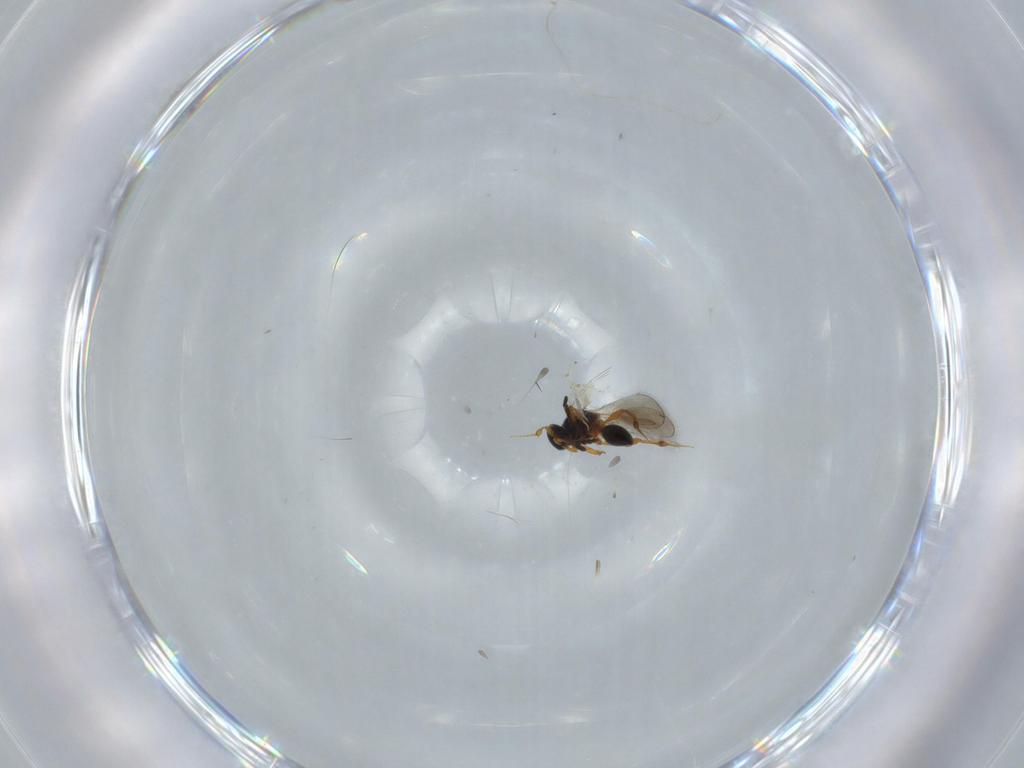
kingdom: Animalia
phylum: Arthropoda
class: Insecta
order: Hymenoptera
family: Platygastridae
